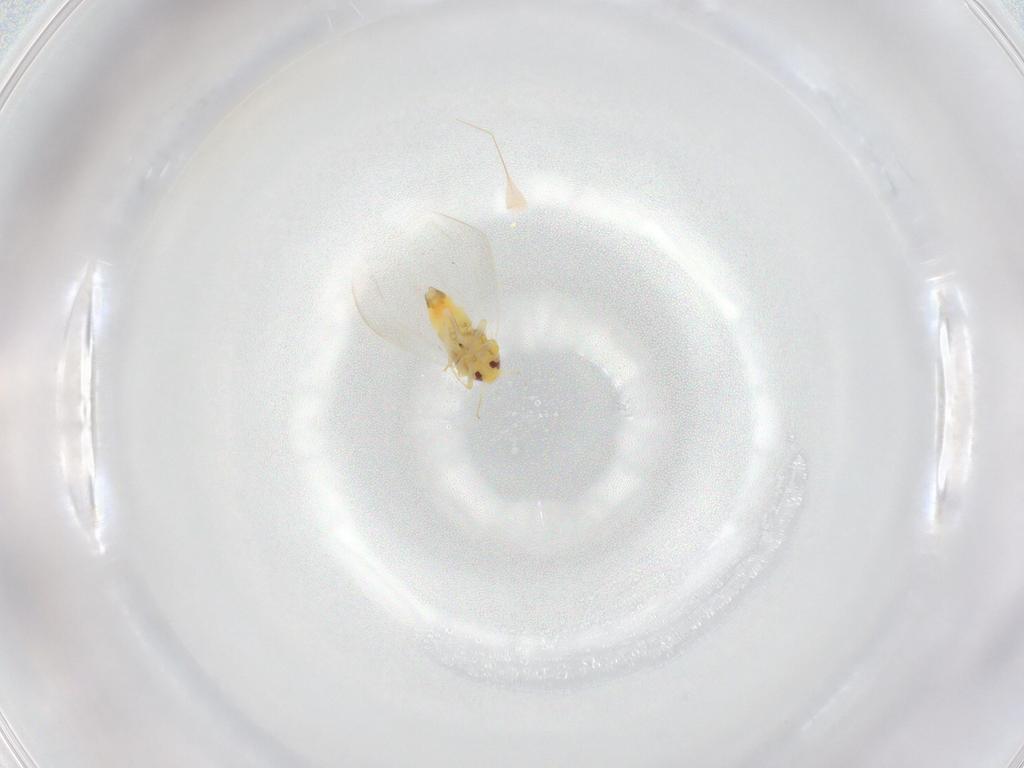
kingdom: Animalia
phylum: Arthropoda
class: Insecta
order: Hemiptera
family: Aleyrodidae
